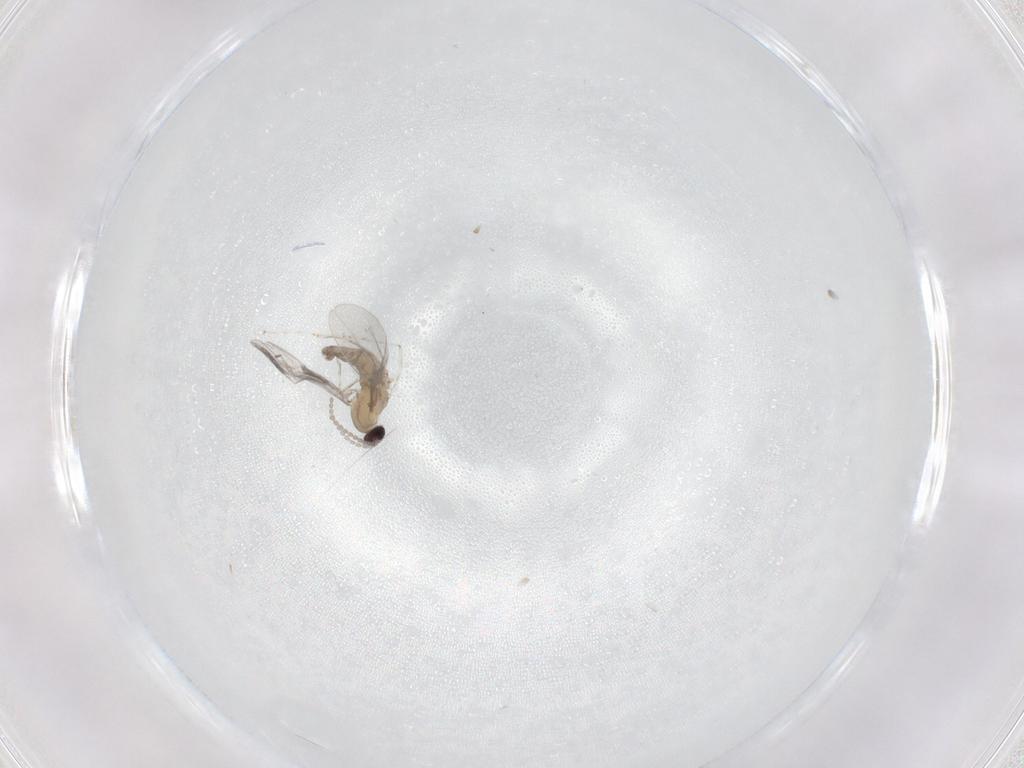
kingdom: Animalia
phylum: Arthropoda
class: Insecta
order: Diptera
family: Cecidomyiidae
